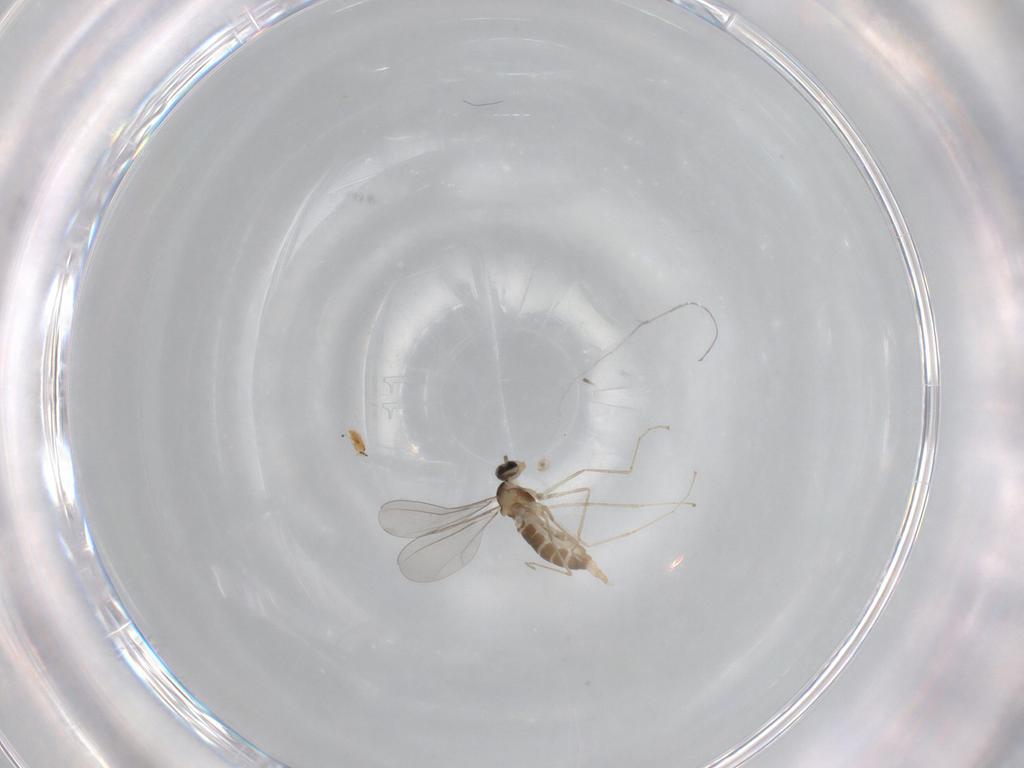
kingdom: Animalia
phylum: Arthropoda
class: Insecta
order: Diptera
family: Cecidomyiidae
